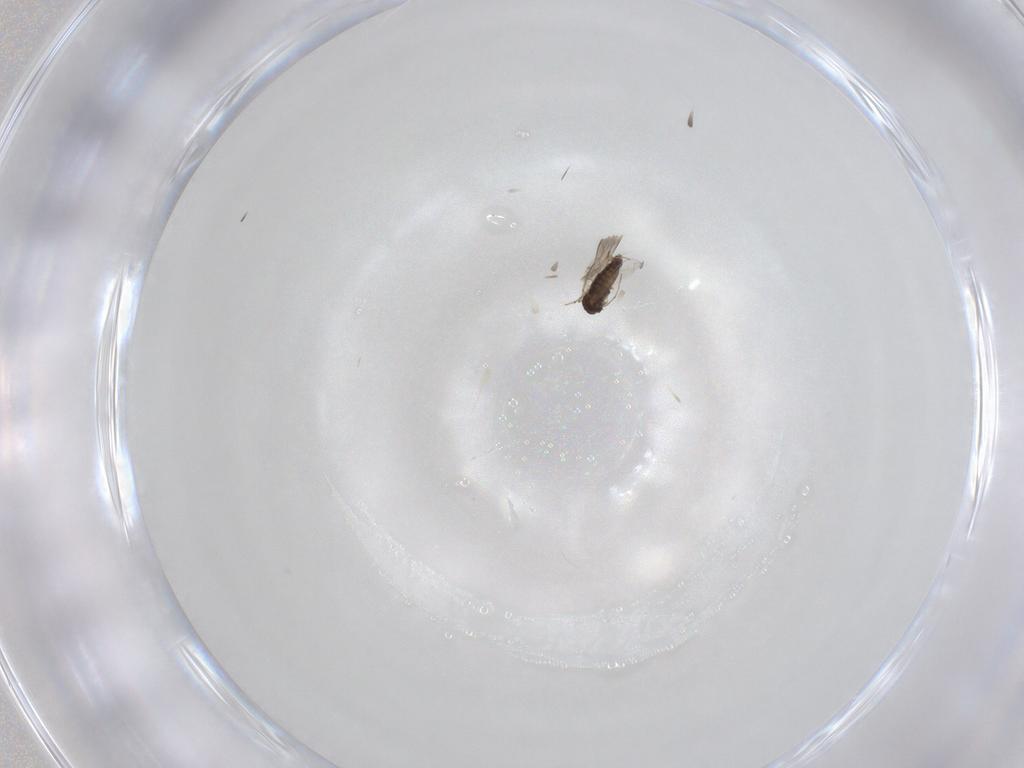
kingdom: Animalia
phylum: Arthropoda
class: Insecta
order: Diptera
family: Chironomidae
